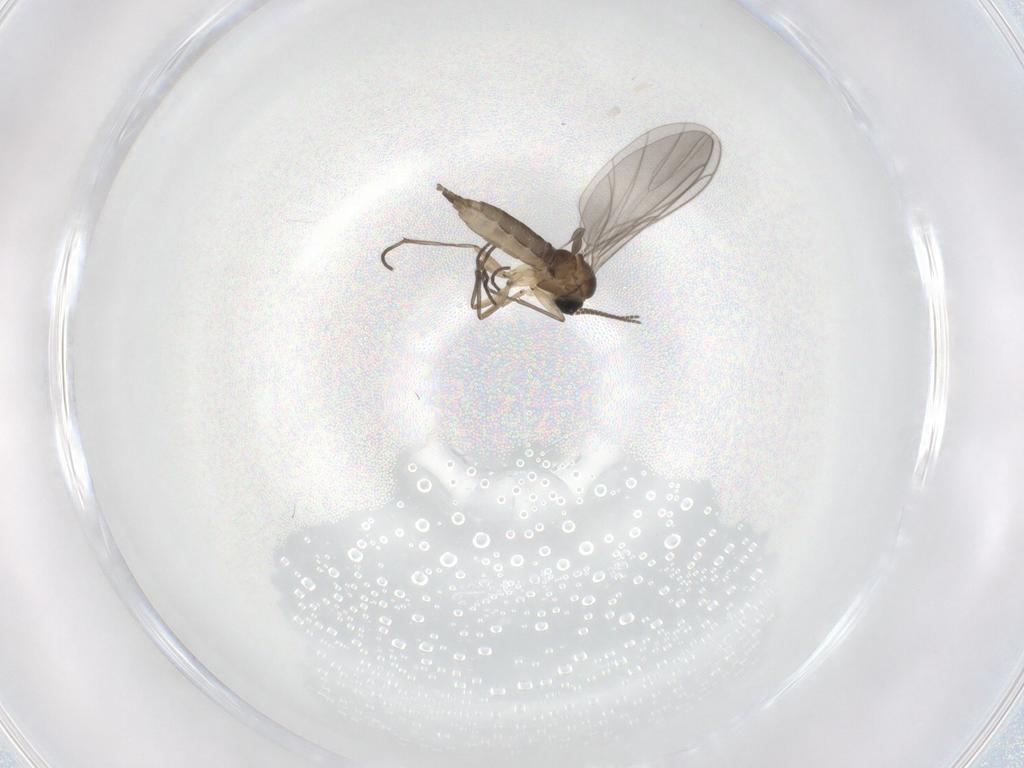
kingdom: Animalia
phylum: Arthropoda
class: Insecta
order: Diptera
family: Sciaridae
